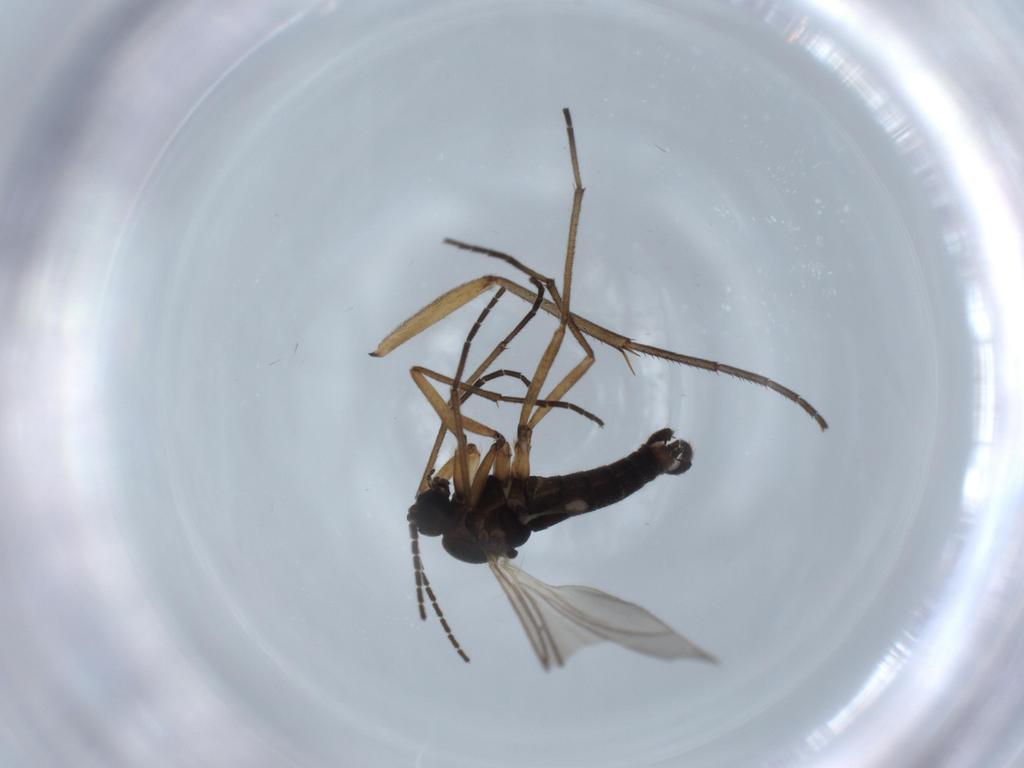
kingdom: Animalia
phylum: Arthropoda
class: Insecta
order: Diptera
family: Sciaridae
